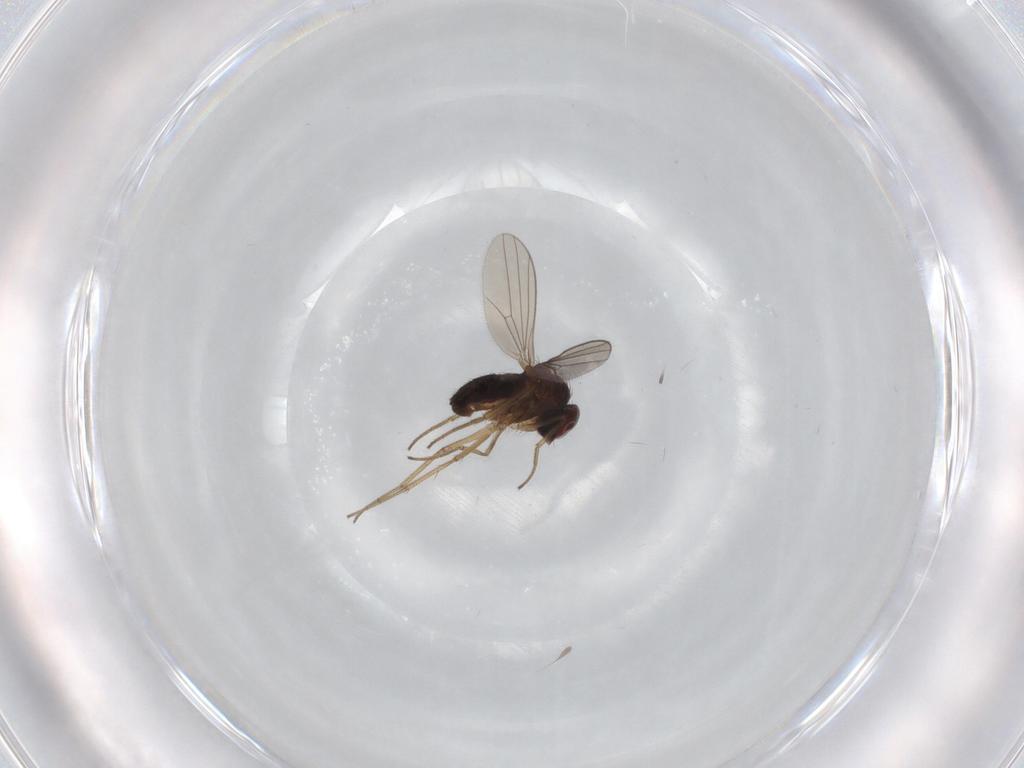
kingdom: Animalia
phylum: Arthropoda
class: Insecta
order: Diptera
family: Dolichopodidae
